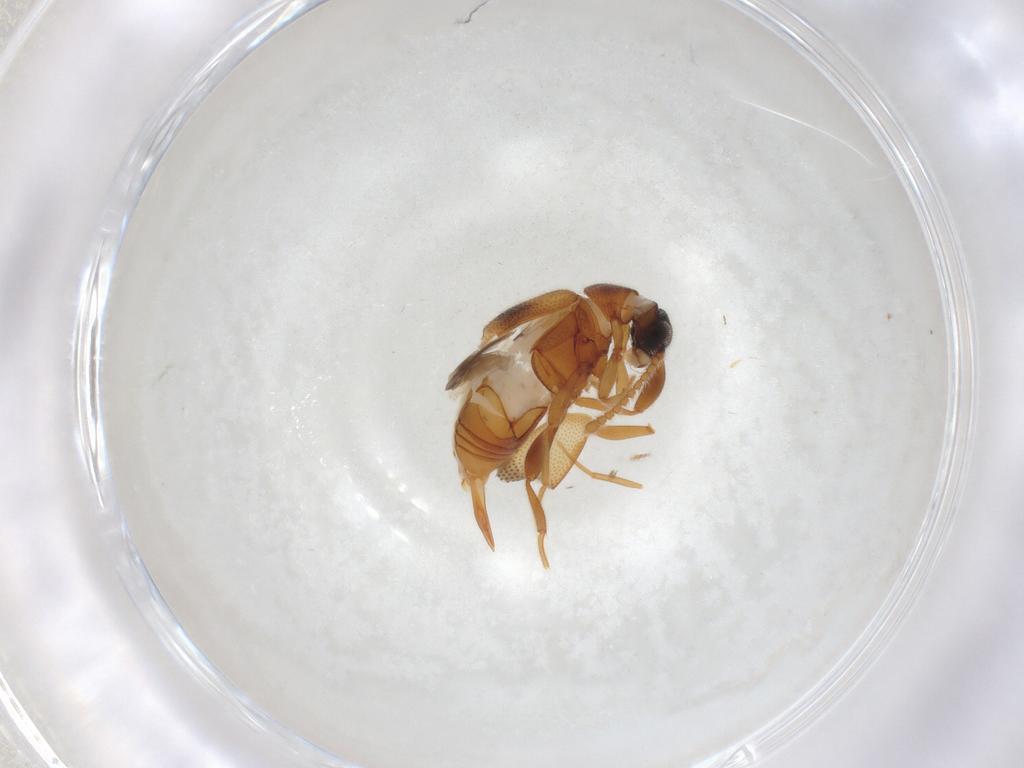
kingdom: Animalia
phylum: Arthropoda
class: Insecta
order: Coleoptera
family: Aderidae
